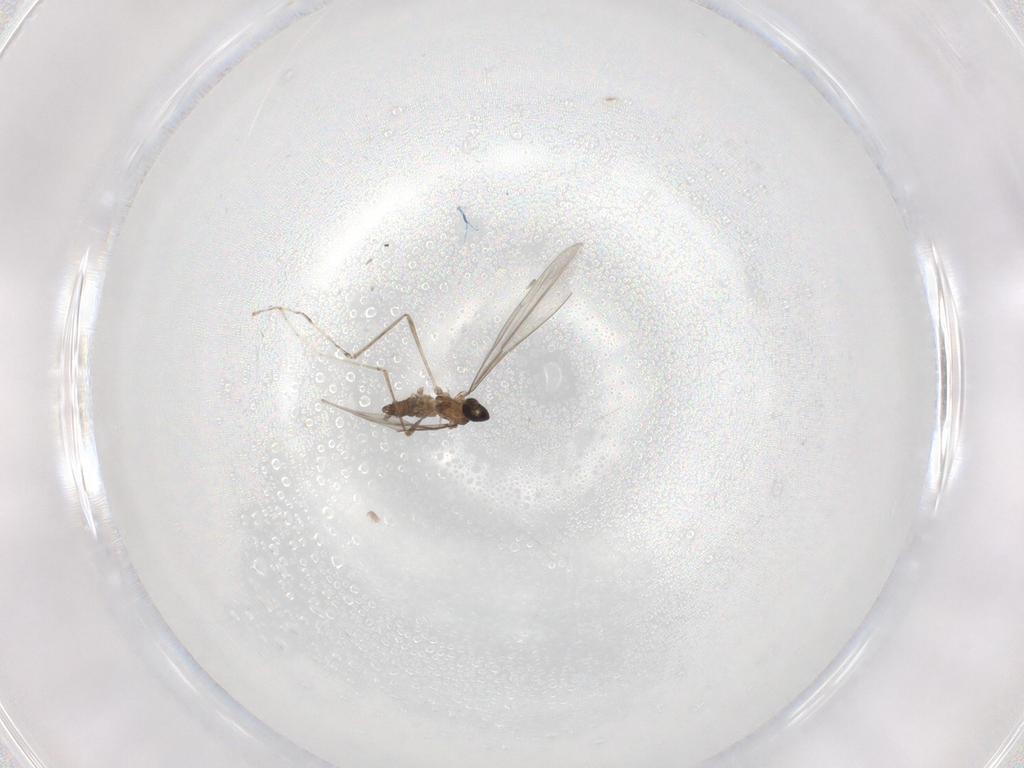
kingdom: Animalia
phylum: Arthropoda
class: Insecta
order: Diptera
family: Cecidomyiidae
